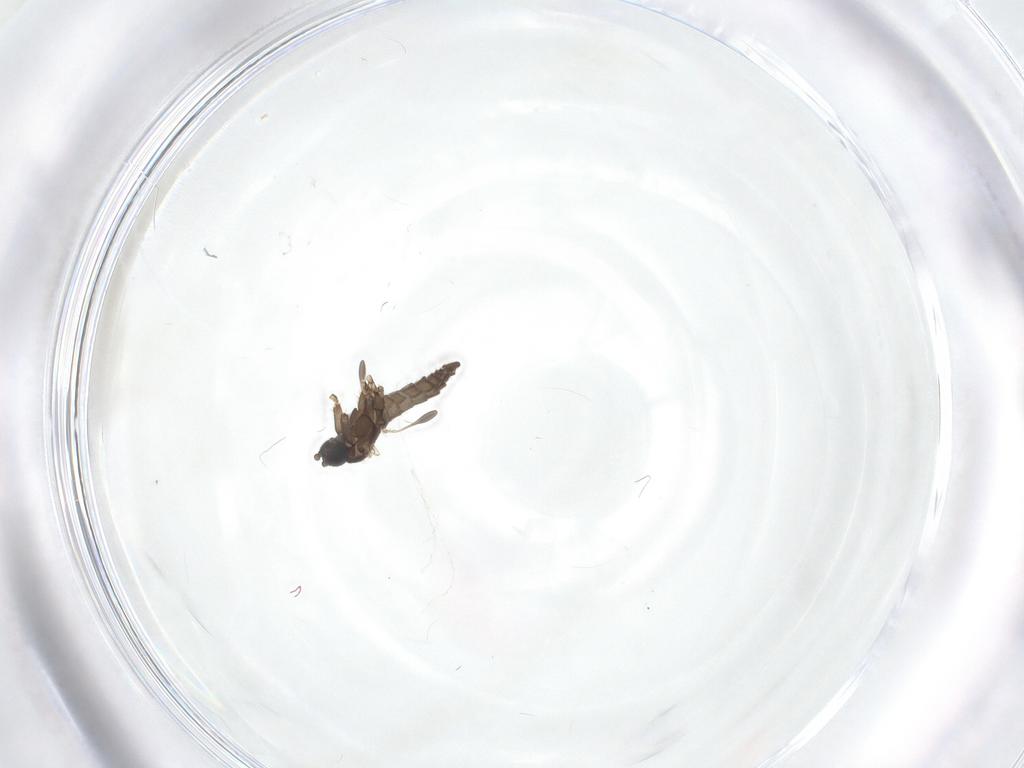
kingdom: Animalia
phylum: Arthropoda
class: Insecta
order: Diptera
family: Sciaridae
